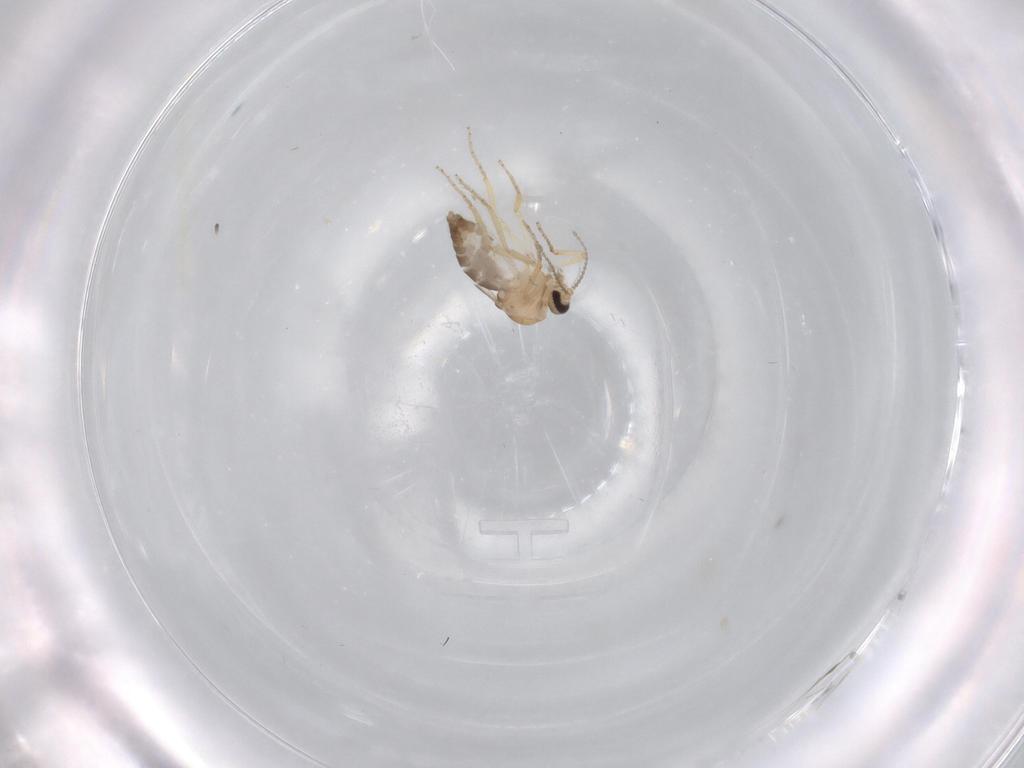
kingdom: Animalia
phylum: Arthropoda
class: Insecta
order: Diptera
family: Ceratopogonidae
